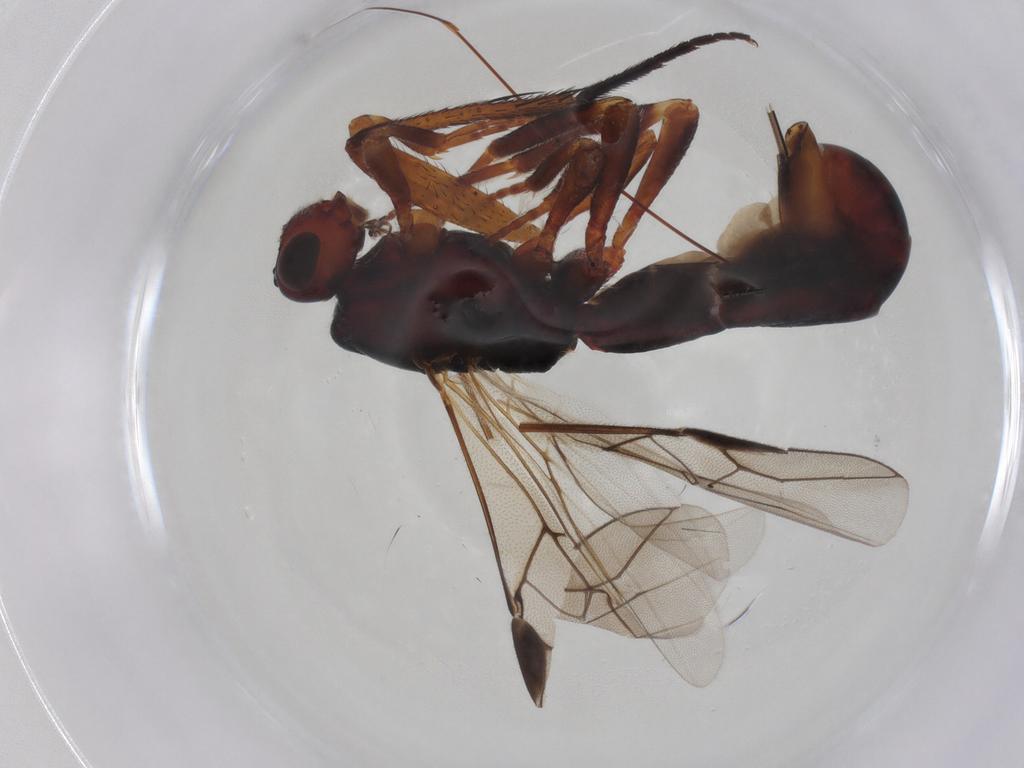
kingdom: Animalia
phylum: Arthropoda
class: Insecta
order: Hymenoptera
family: Braconidae
